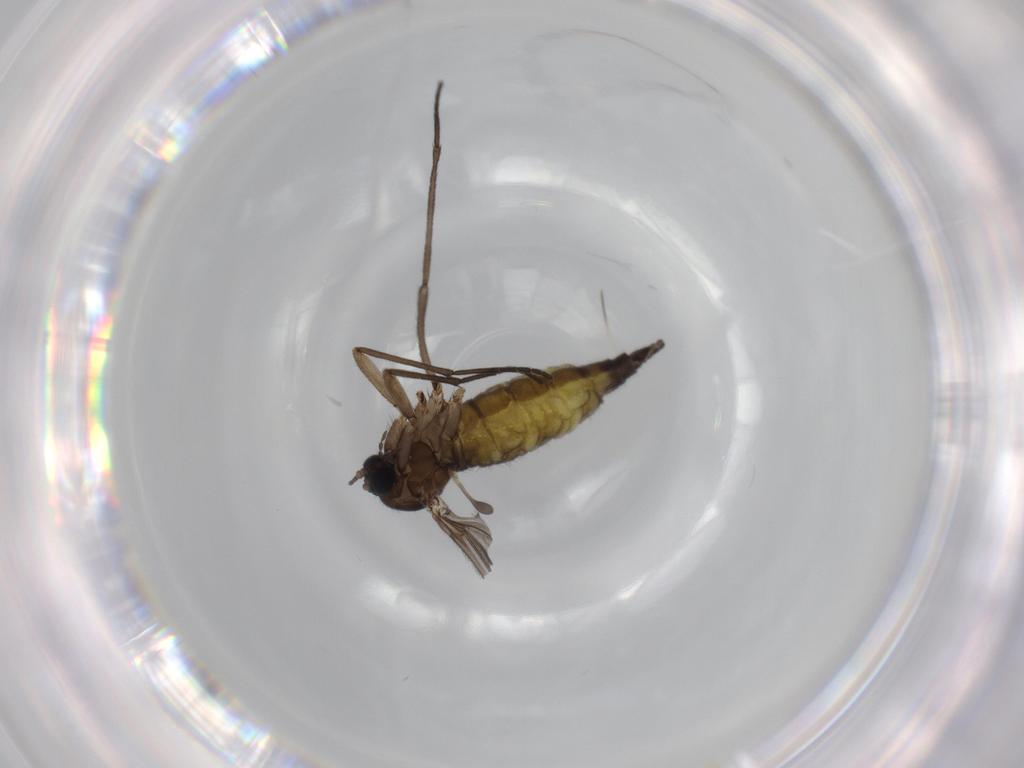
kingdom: Animalia
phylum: Arthropoda
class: Insecta
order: Diptera
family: Sciaridae
